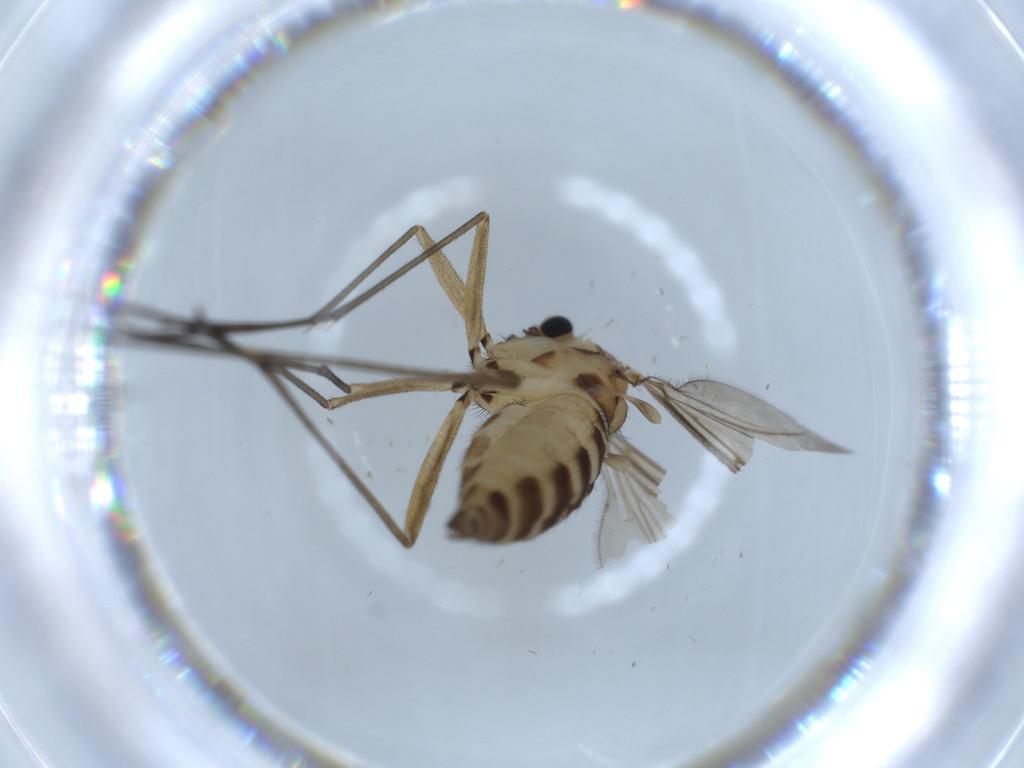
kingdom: Animalia
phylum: Arthropoda
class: Insecta
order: Diptera
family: Sciaridae
